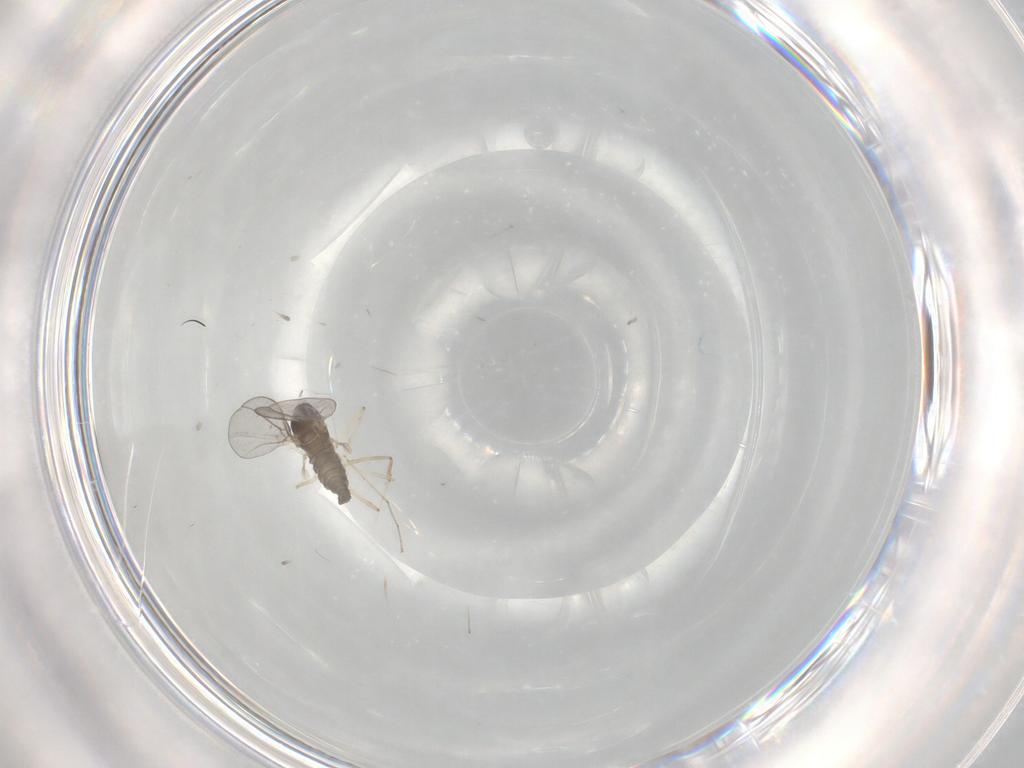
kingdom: Animalia
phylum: Arthropoda
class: Insecta
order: Diptera
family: Cecidomyiidae
